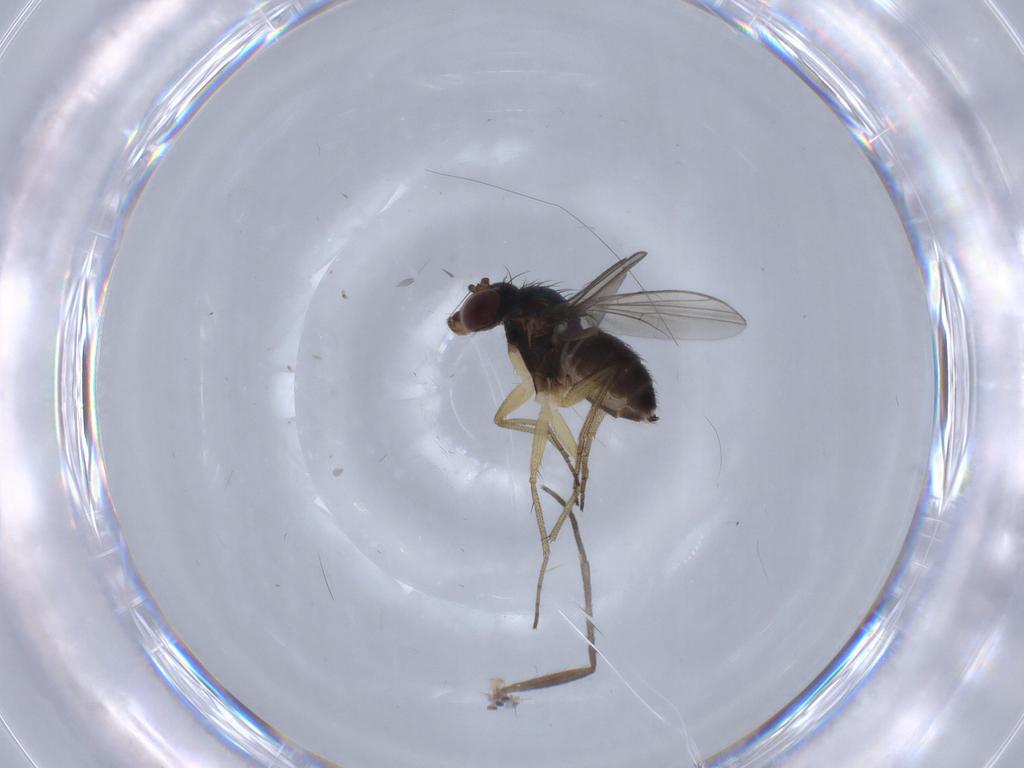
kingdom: Animalia
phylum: Arthropoda
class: Insecta
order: Diptera
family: Dolichopodidae
